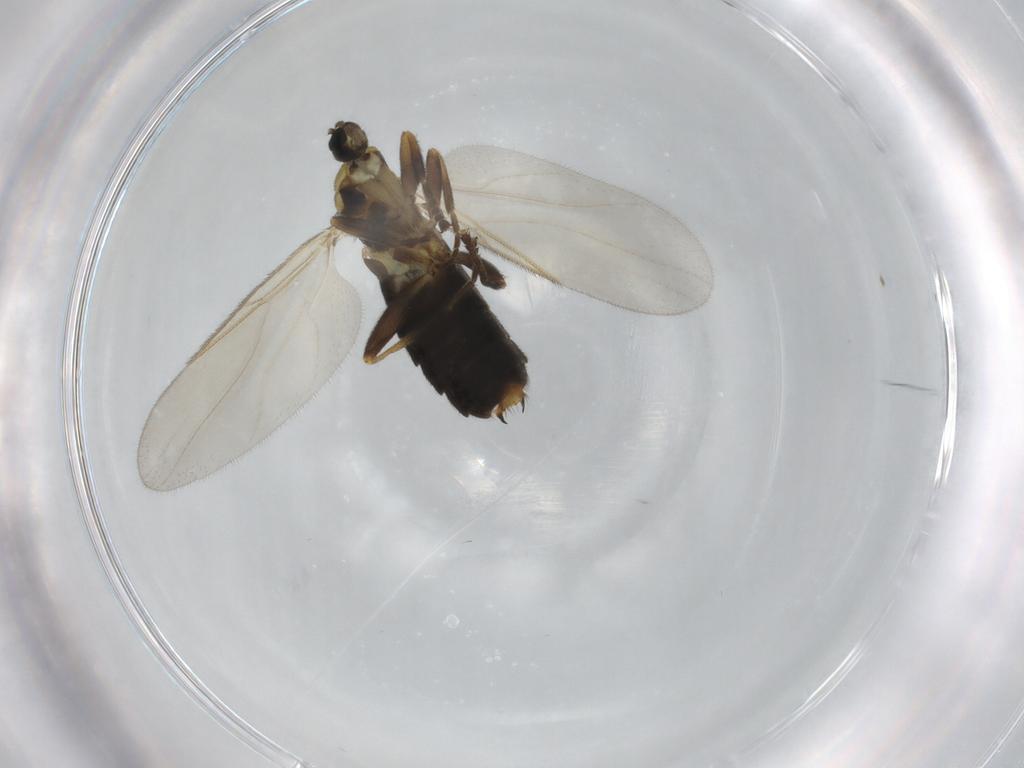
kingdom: Animalia
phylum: Arthropoda
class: Insecta
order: Diptera
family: Scatopsidae
